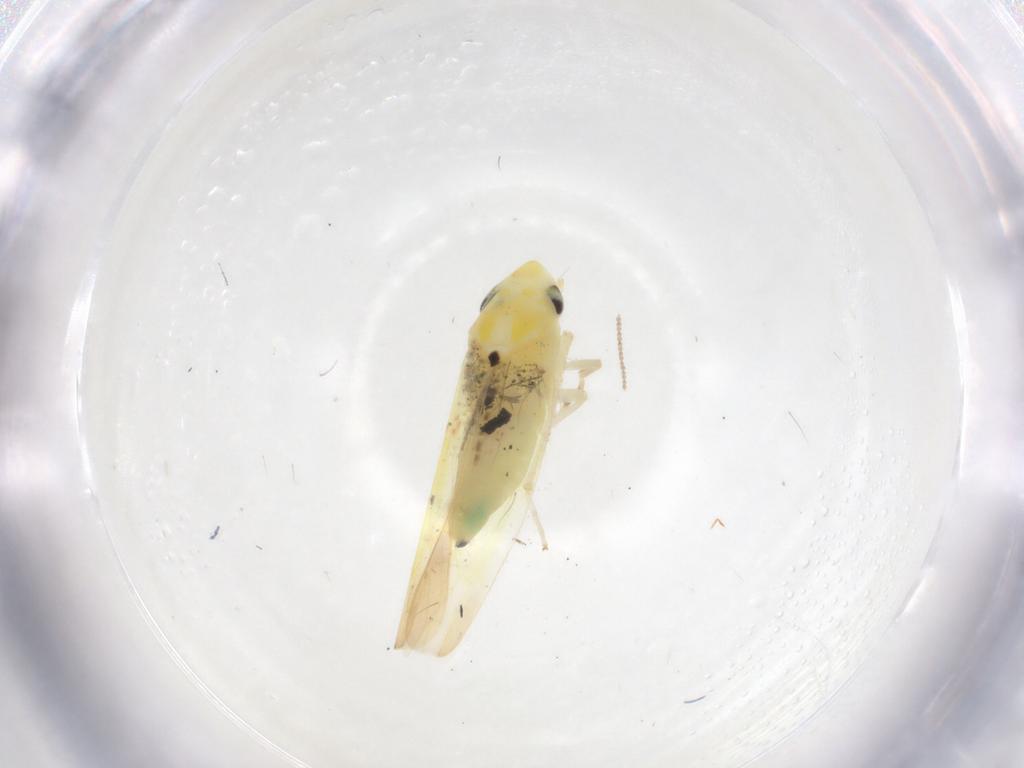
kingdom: Animalia
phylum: Arthropoda
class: Insecta
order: Hemiptera
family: Cicadellidae
